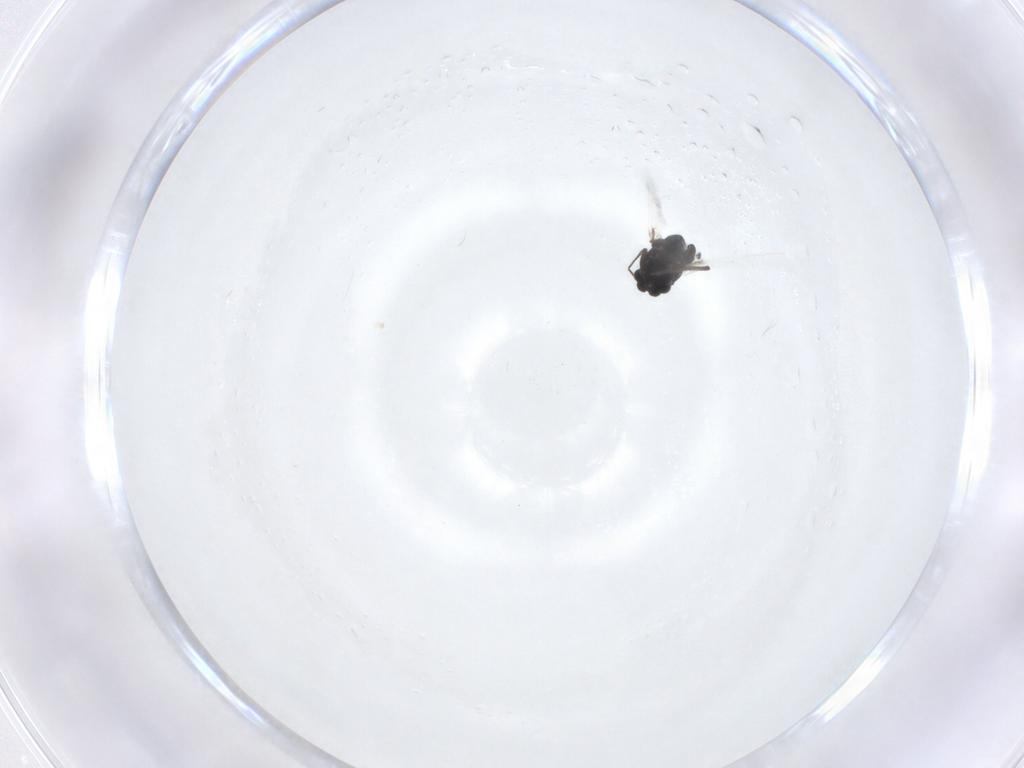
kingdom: Animalia
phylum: Arthropoda
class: Insecta
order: Diptera
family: Chironomidae
